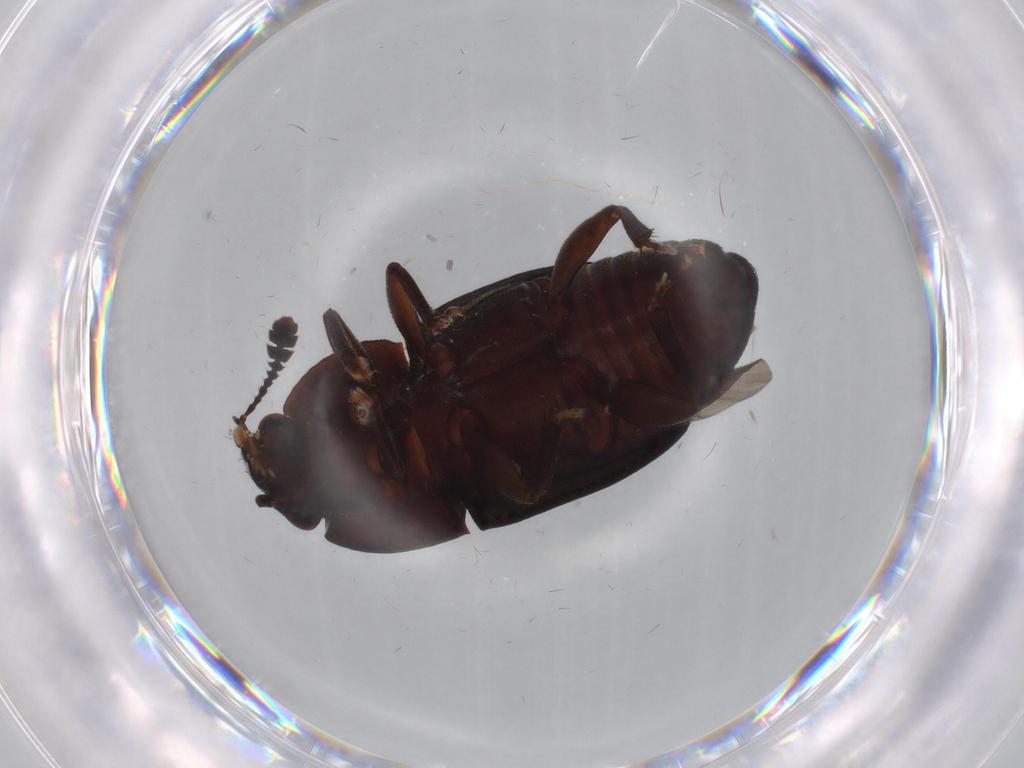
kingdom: Animalia
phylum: Arthropoda
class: Insecta
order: Coleoptera
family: Nitidulidae
